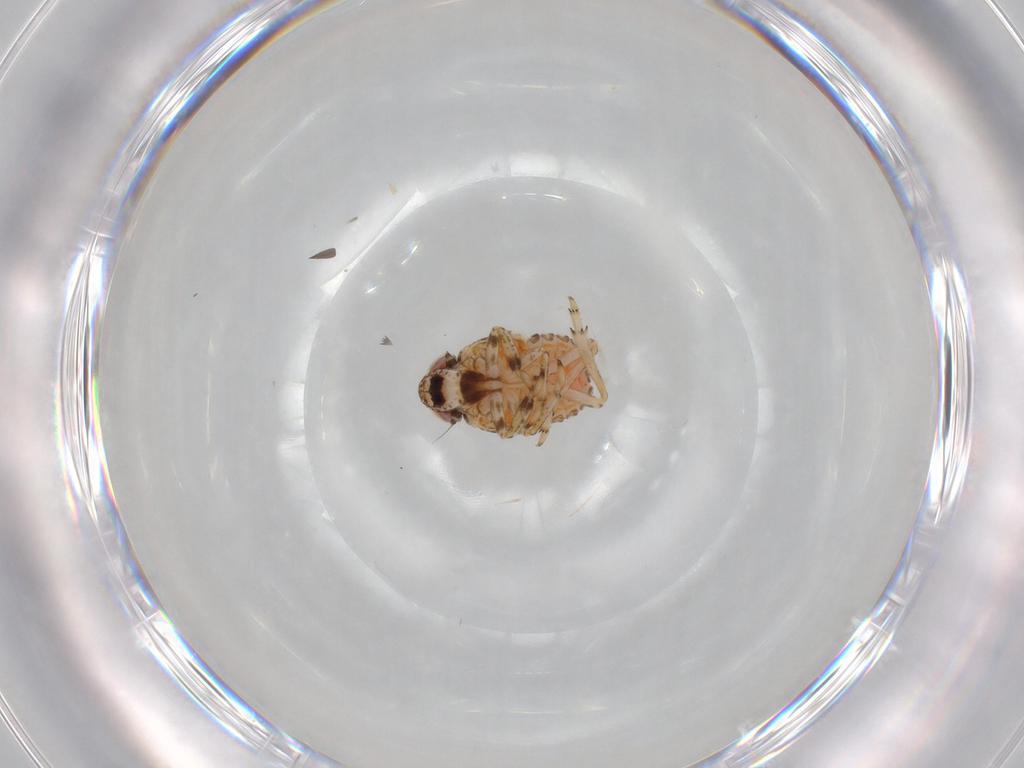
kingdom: Animalia
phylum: Arthropoda
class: Insecta
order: Hemiptera
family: Issidae
